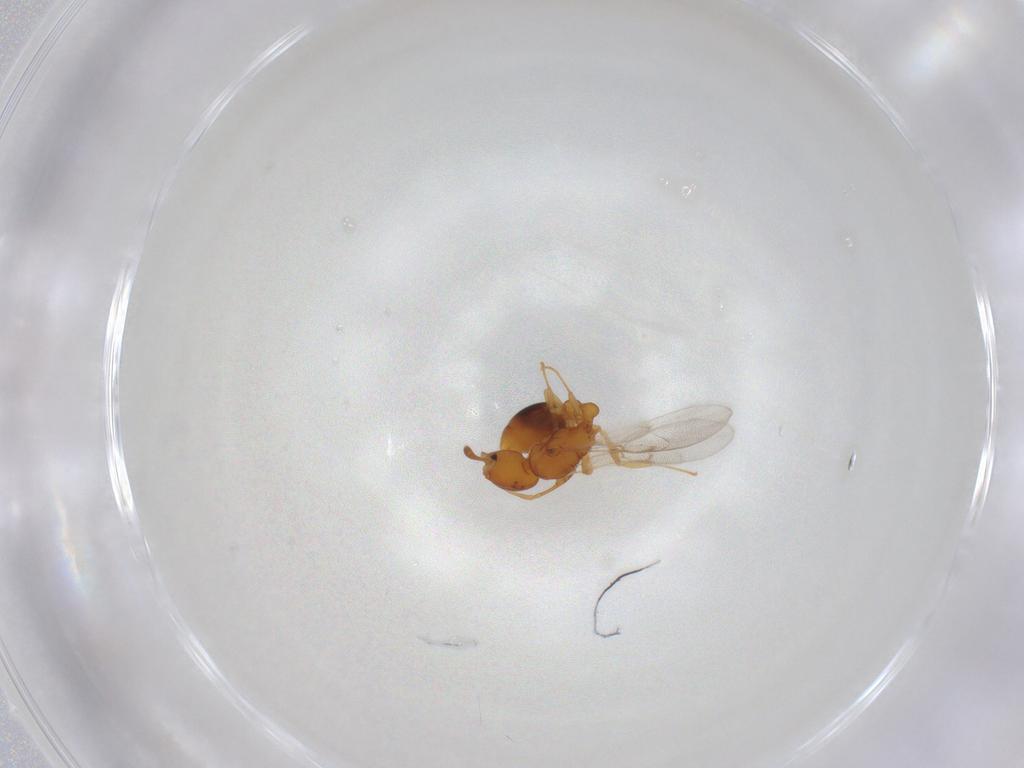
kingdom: Animalia
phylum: Arthropoda
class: Insecta
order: Hymenoptera
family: Formicidae
